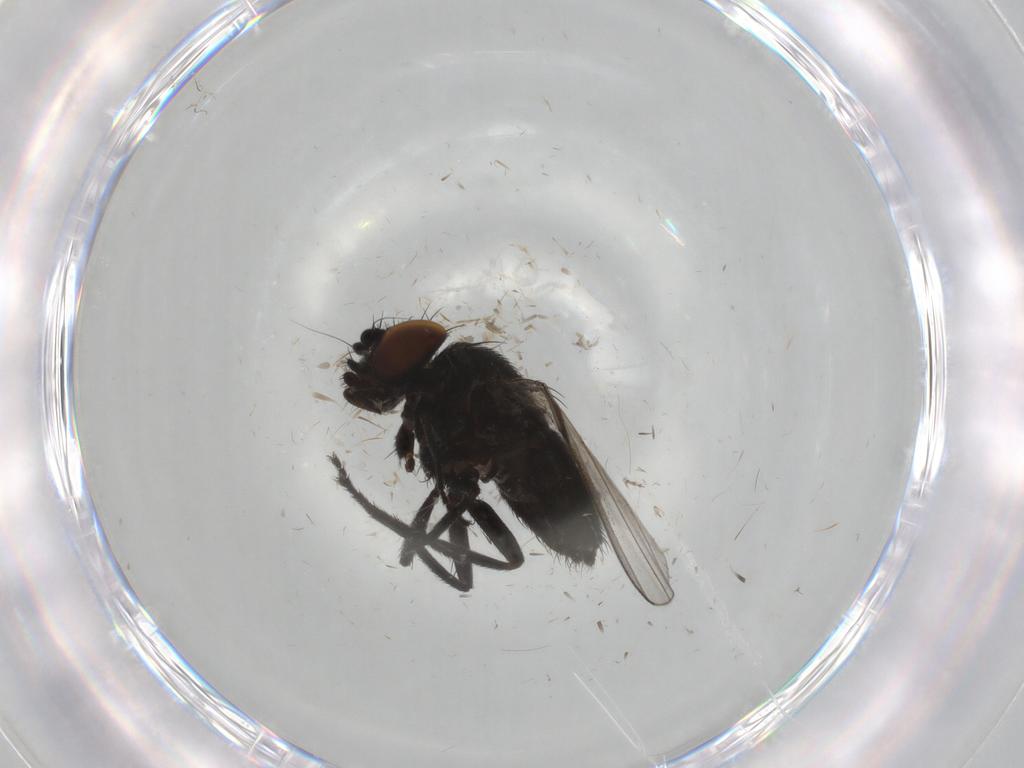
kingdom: Animalia
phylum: Arthropoda
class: Insecta
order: Diptera
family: Milichiidae
